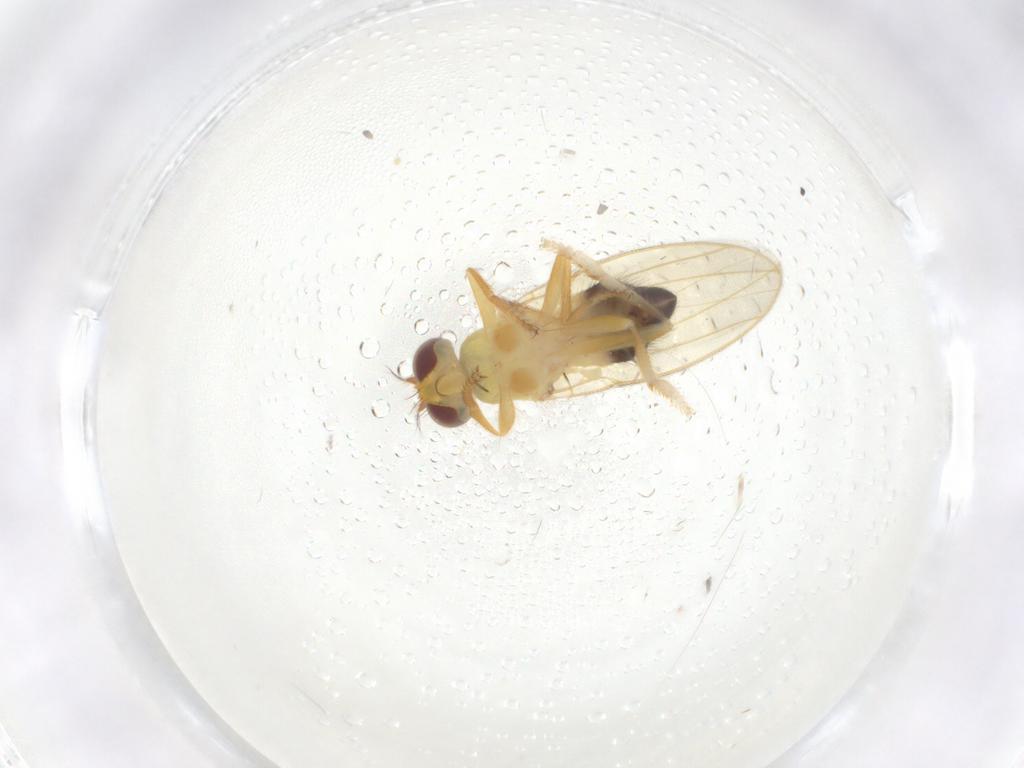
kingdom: Animalia
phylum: Arthropoda
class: Insecta
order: Diptera
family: Periscelididae
